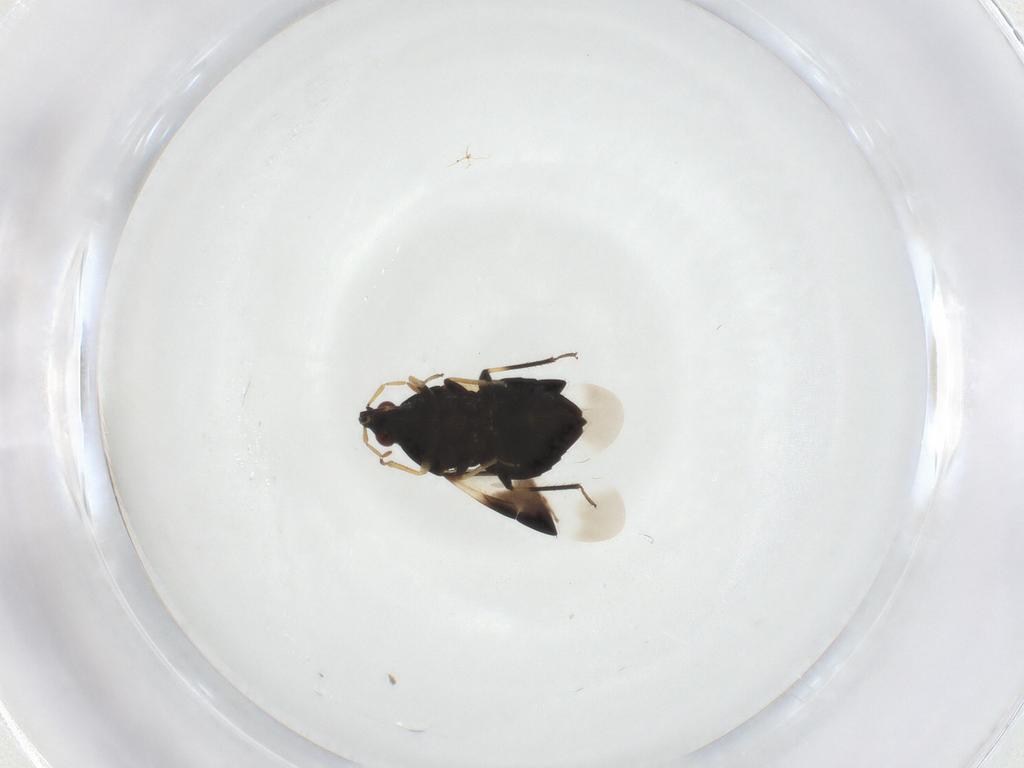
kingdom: Animalia
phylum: Arthropoda
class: Insecta
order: Hemiptera
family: Anthocoridae
